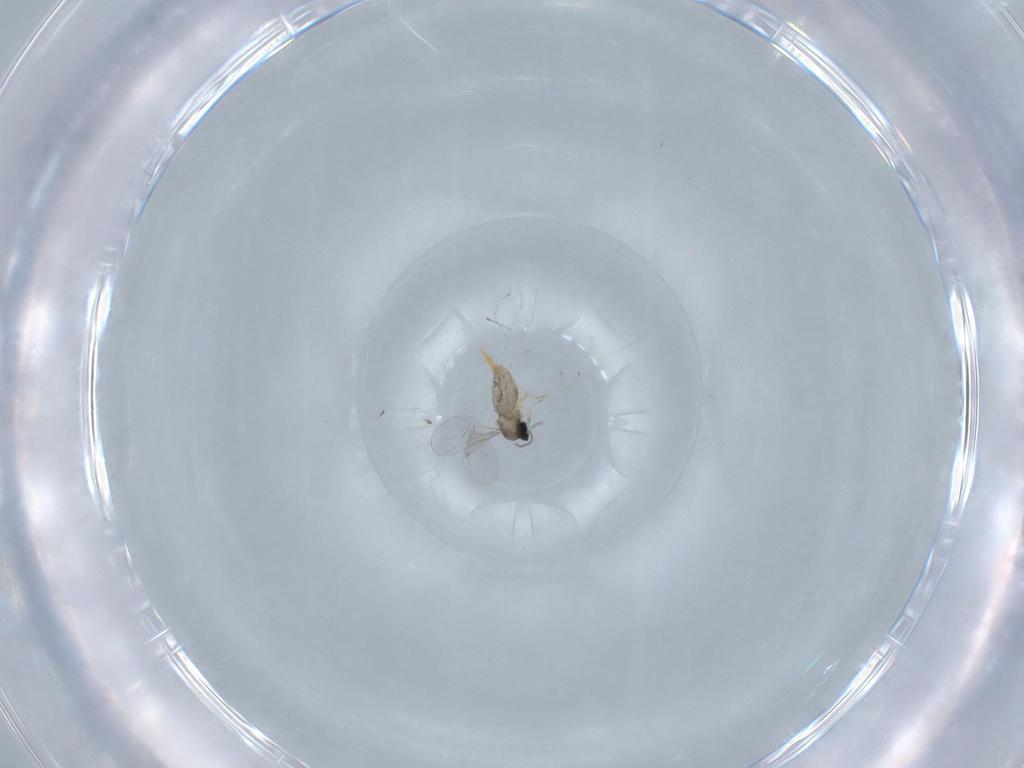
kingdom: Animalia
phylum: Arthropoda
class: Insecta
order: Diptera
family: Cecidomyiidae
